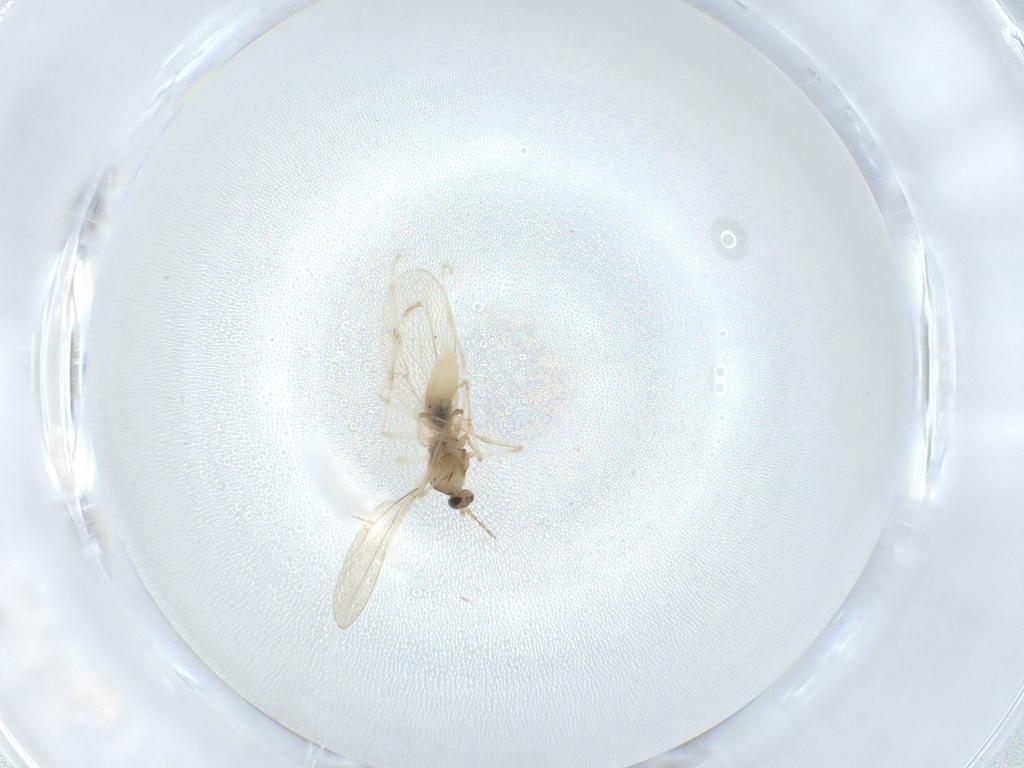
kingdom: Animalia
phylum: Arthropoda
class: Insecta
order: Diptera
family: Cecidomyiidae
